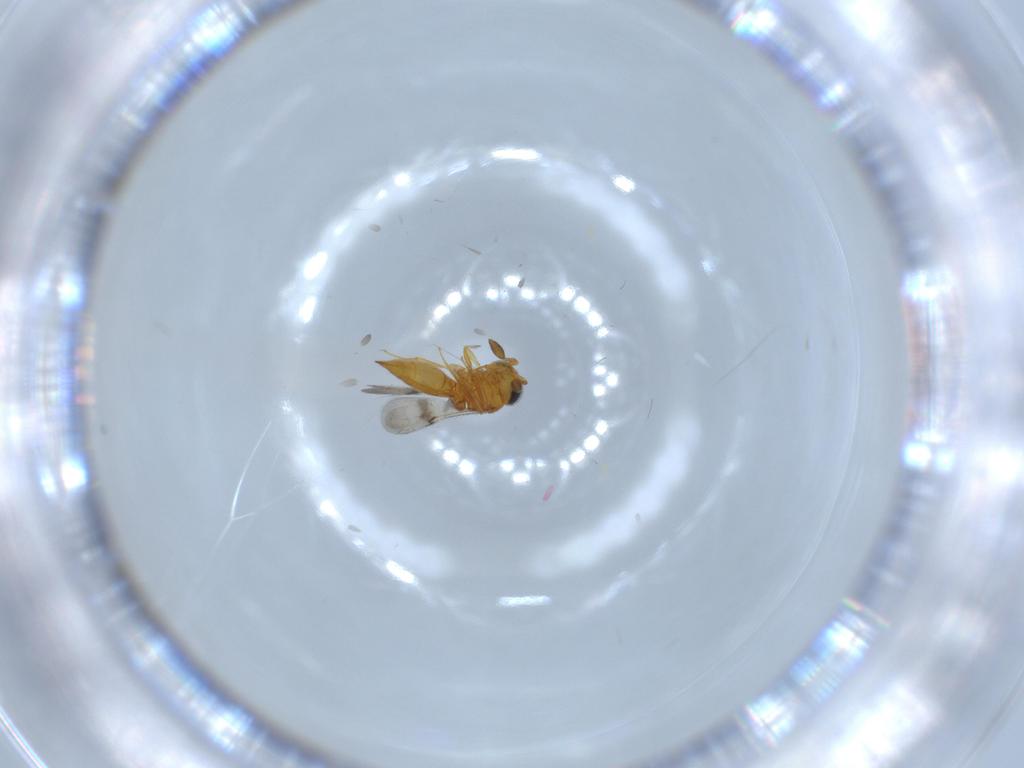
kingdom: Animalia
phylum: Arthropoda
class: Insecta
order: Hymenoptera
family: Scelionidae
